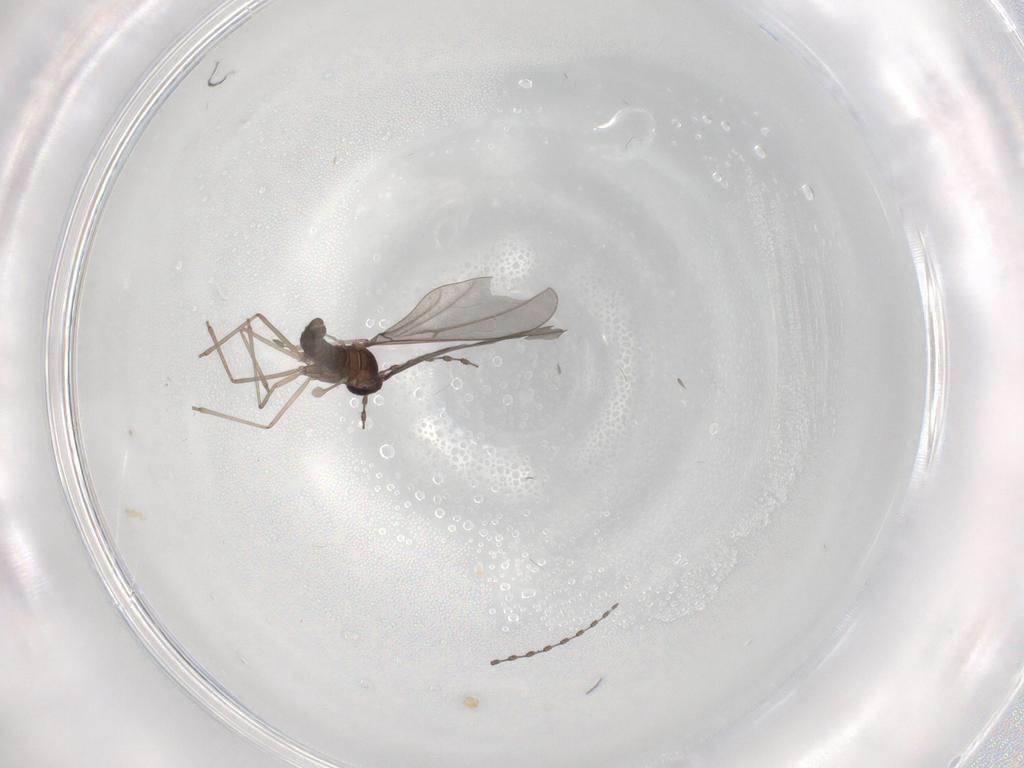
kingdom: Animalia
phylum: Arthropoda
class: Insecta
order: Diptera
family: Cecidomyiidae
